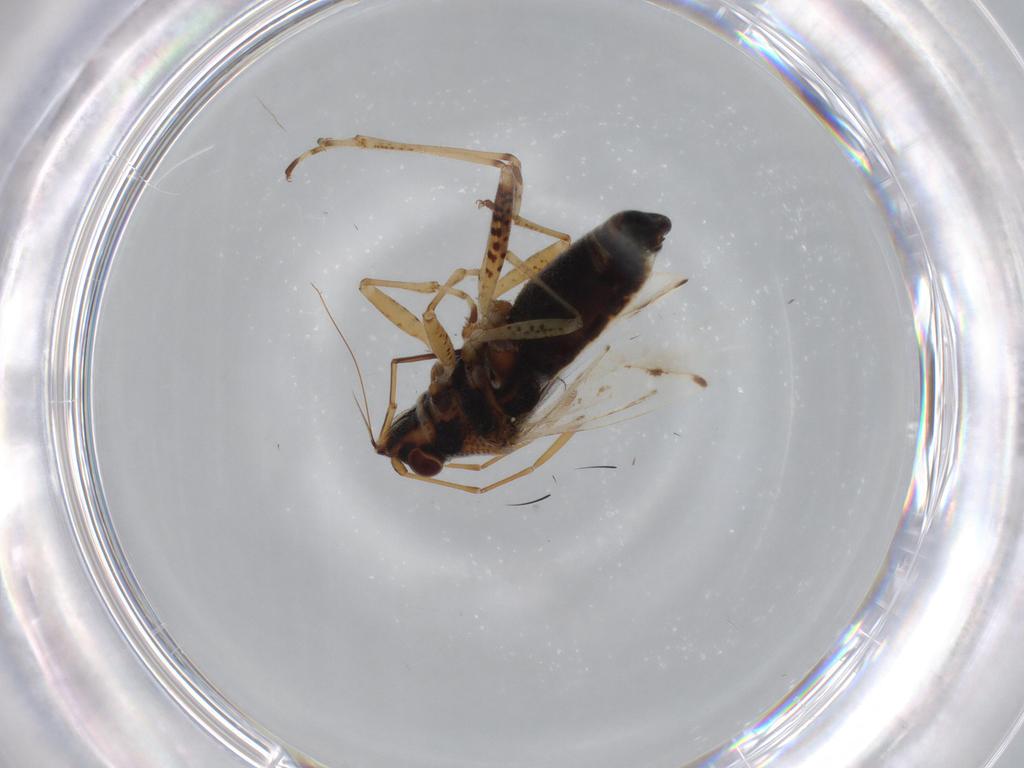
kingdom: Animalia
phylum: Arthropoda
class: Insecta
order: Hemiptera
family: Lygaeidae
